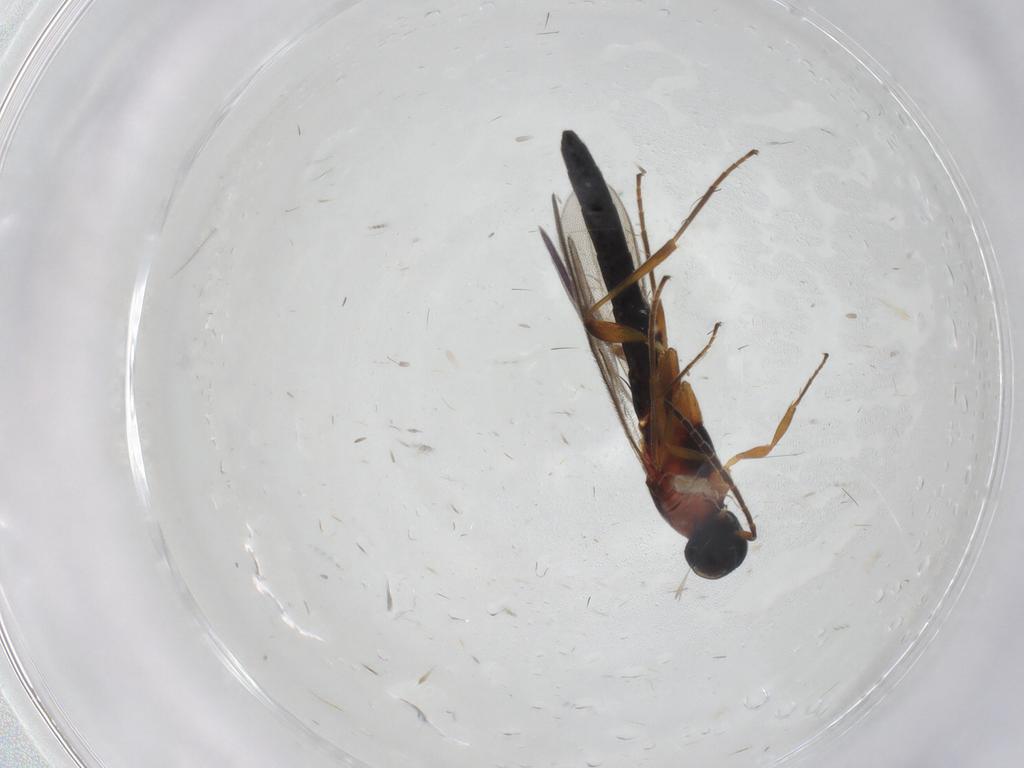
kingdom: Animalia
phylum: Arthropoda
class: Insecta
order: Hymenoptera
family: Scelionidae
